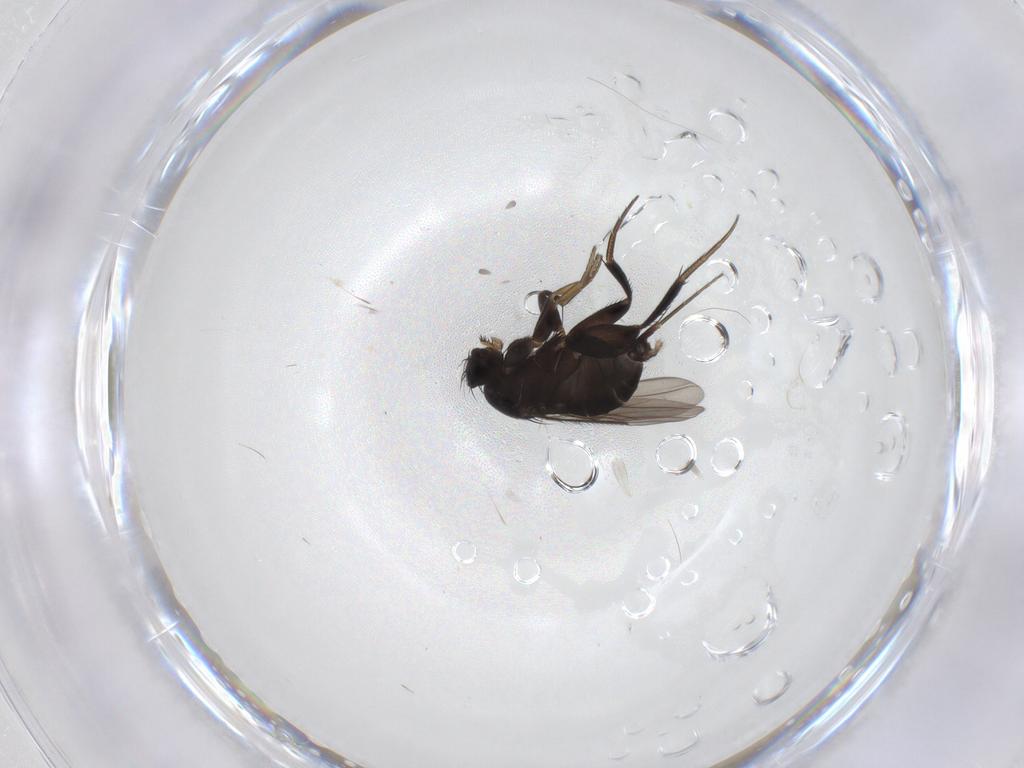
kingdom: Animalia
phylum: Arthropoda
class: Insecta
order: Diptera
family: Phoridae
